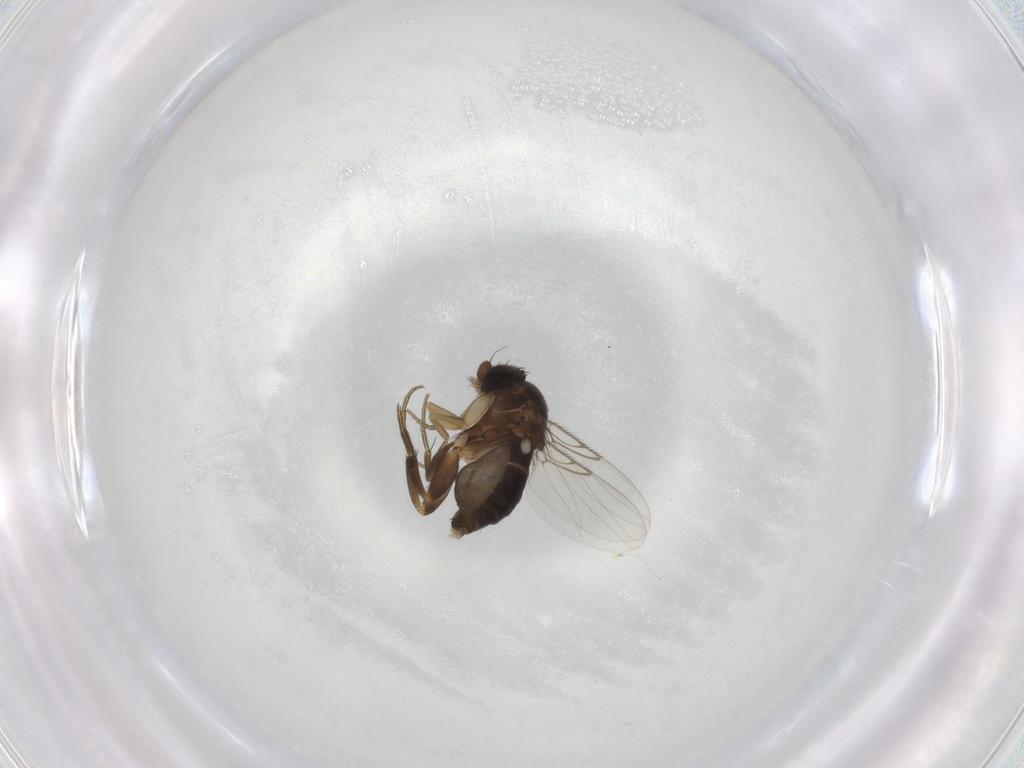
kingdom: Animalia
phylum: Arthropoda
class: Insecta
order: Diptera
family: Phoridae
